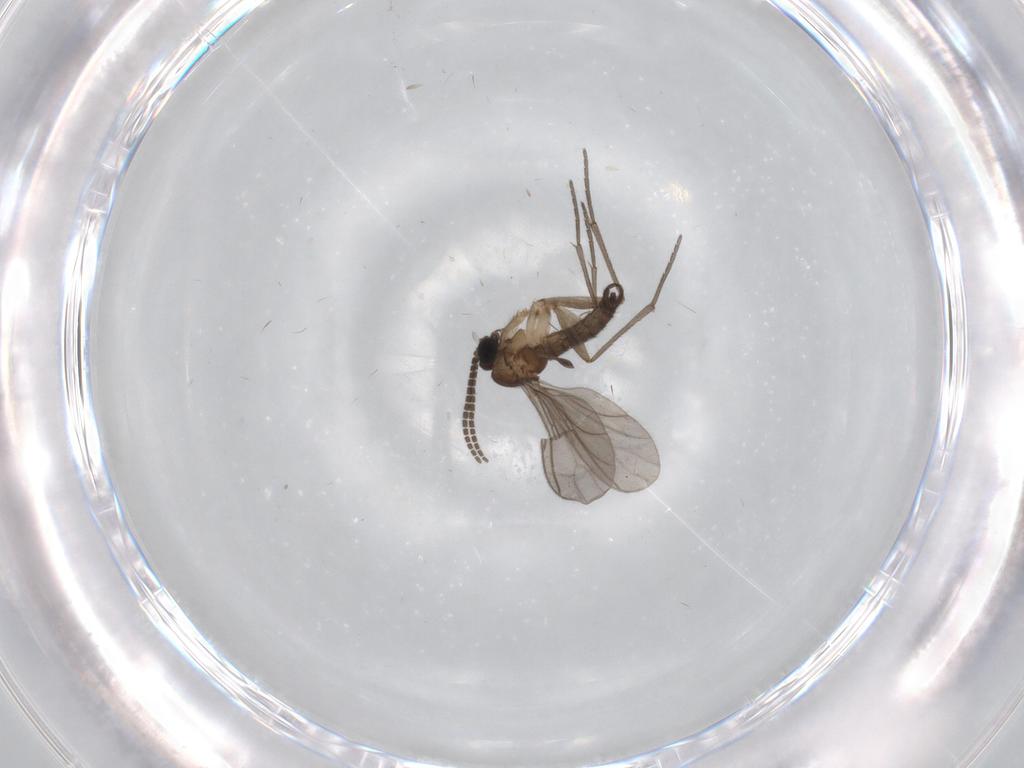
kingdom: Animalia
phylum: Arthropoda
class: Insecta
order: Diptera
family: Sciaridae
